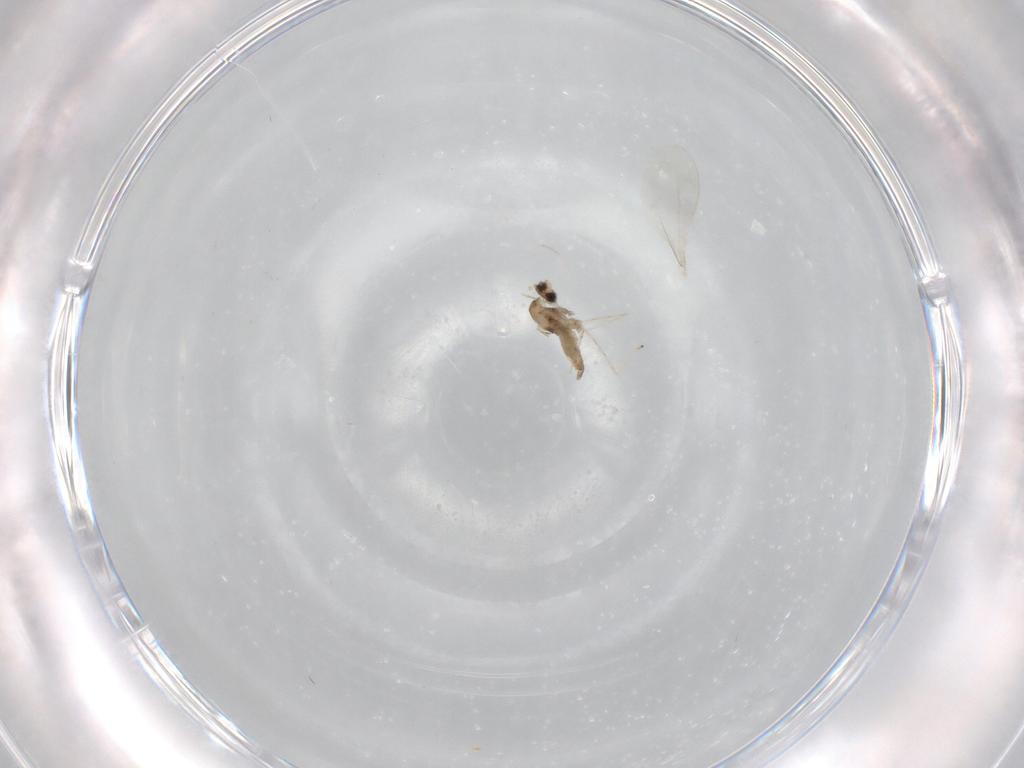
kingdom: Animalia
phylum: Arthropoda
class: Insecta
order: Diptera
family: Cecidomyiidae
